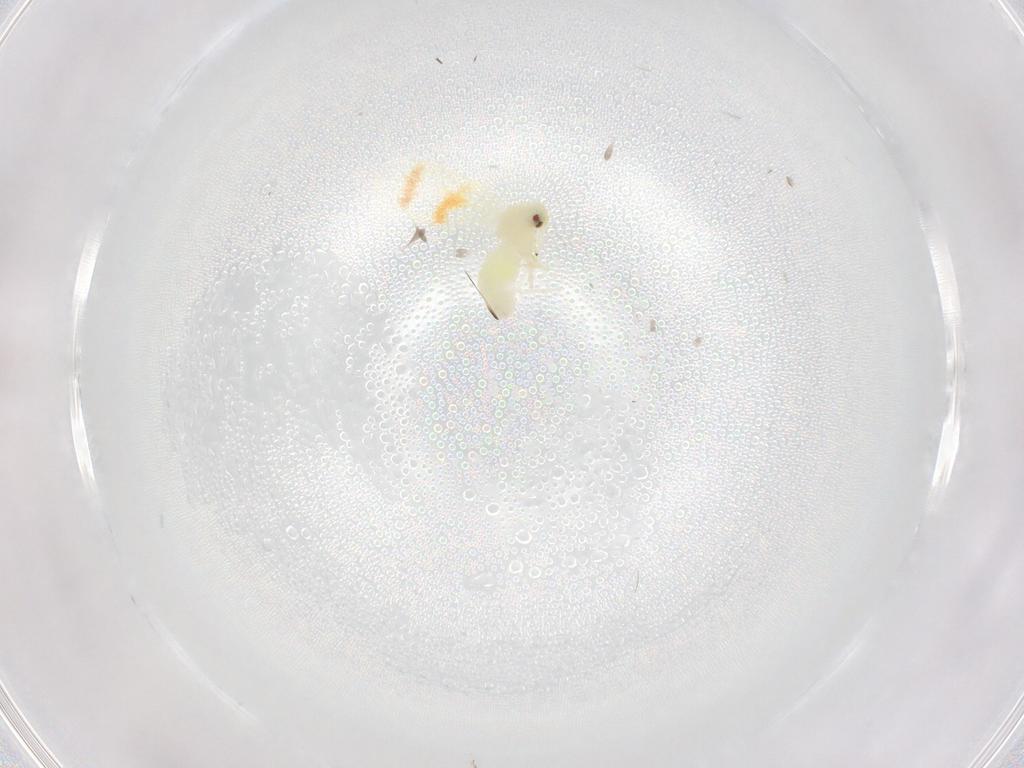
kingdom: Animalia
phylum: Arthropoda
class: Insecta
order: Hemiptera
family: Aleyrodidae
